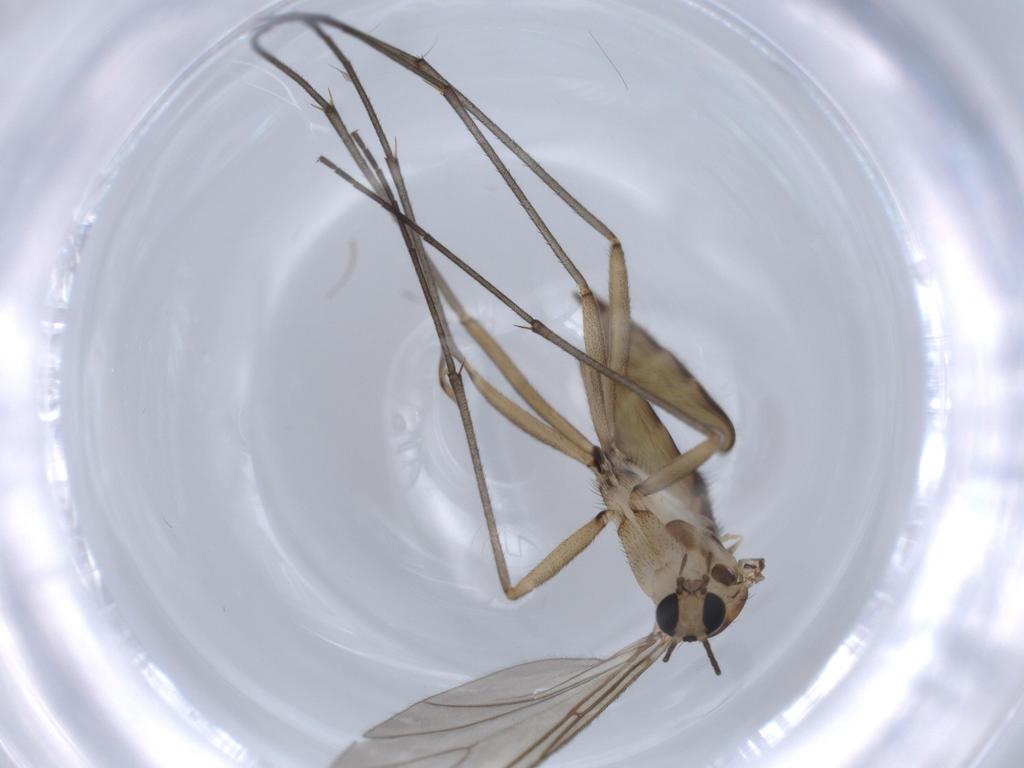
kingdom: Animalia
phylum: Arthropoda
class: Insecta
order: Diptera
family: Sciaridae
